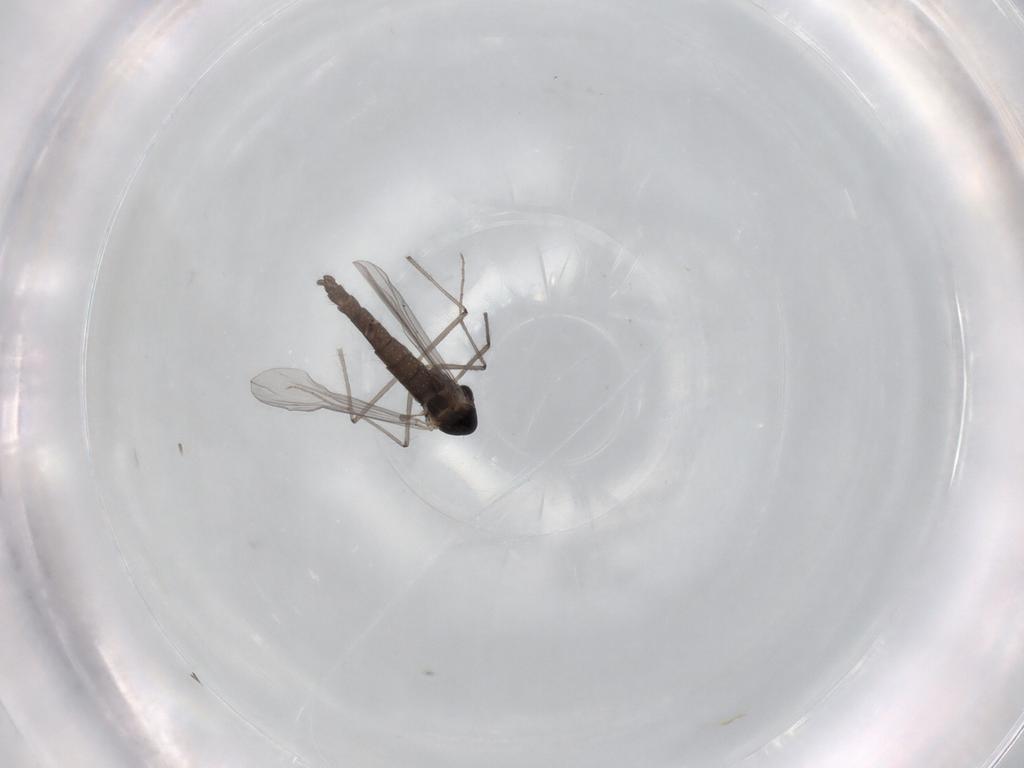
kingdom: Animalia
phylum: Arthropoda
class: Insecta
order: Diptera
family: Chironomidae
